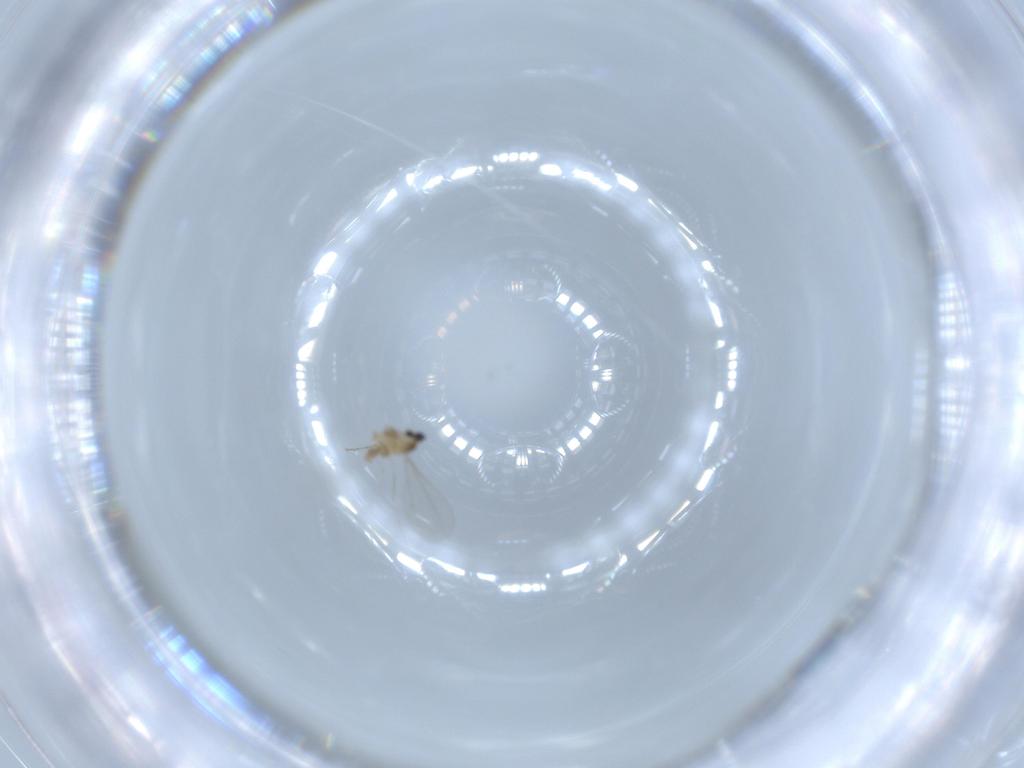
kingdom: Animalia
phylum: Arthropoda
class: Insecta
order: Diptera
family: Cecidomyiidae
